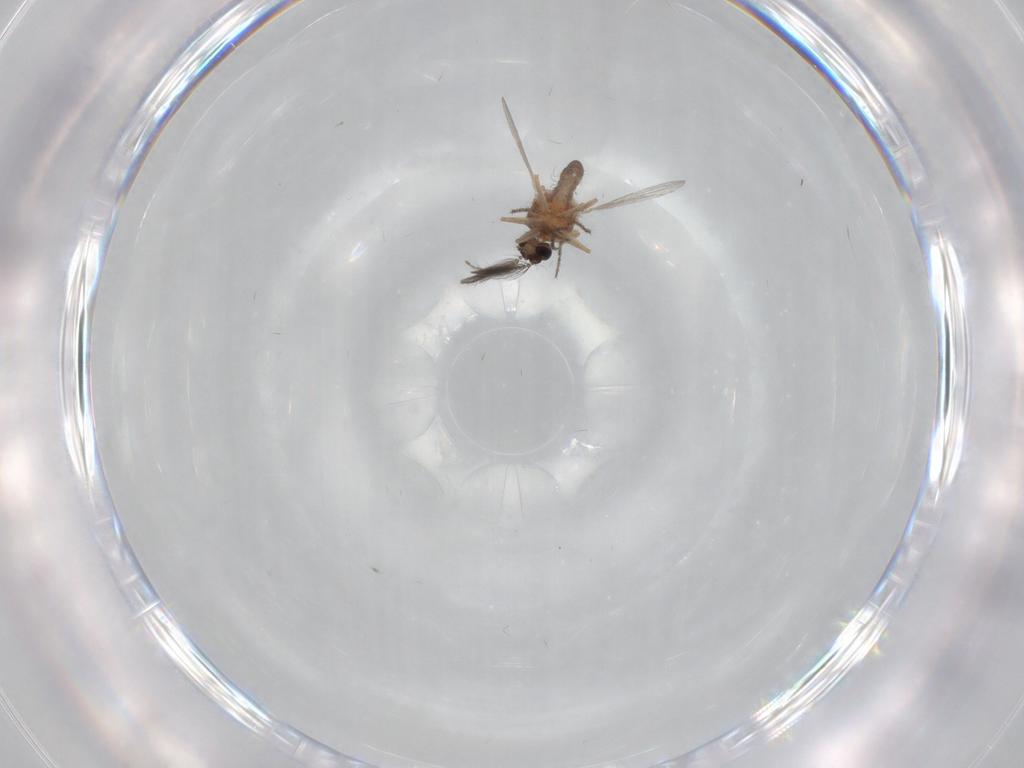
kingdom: Animalia
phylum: Arthropoda
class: Insecta
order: Diptera
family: Ceratopogonidae
